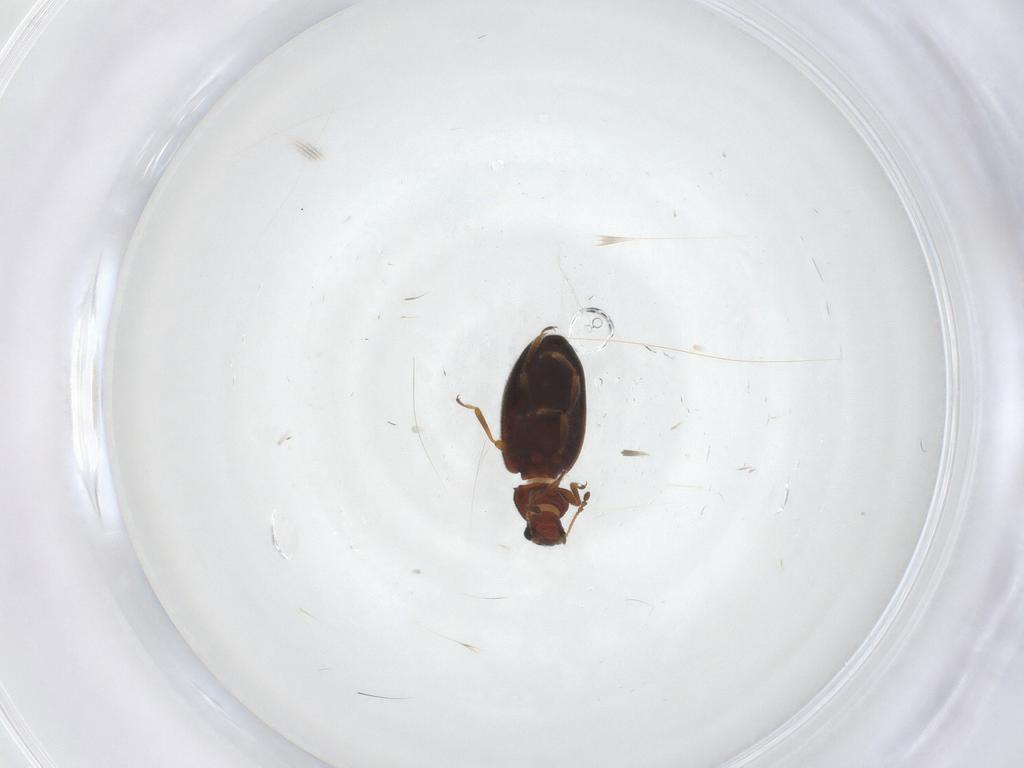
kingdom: Animalia
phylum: Arthropoda
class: Insecta
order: Coleoptera
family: Latridiidae
